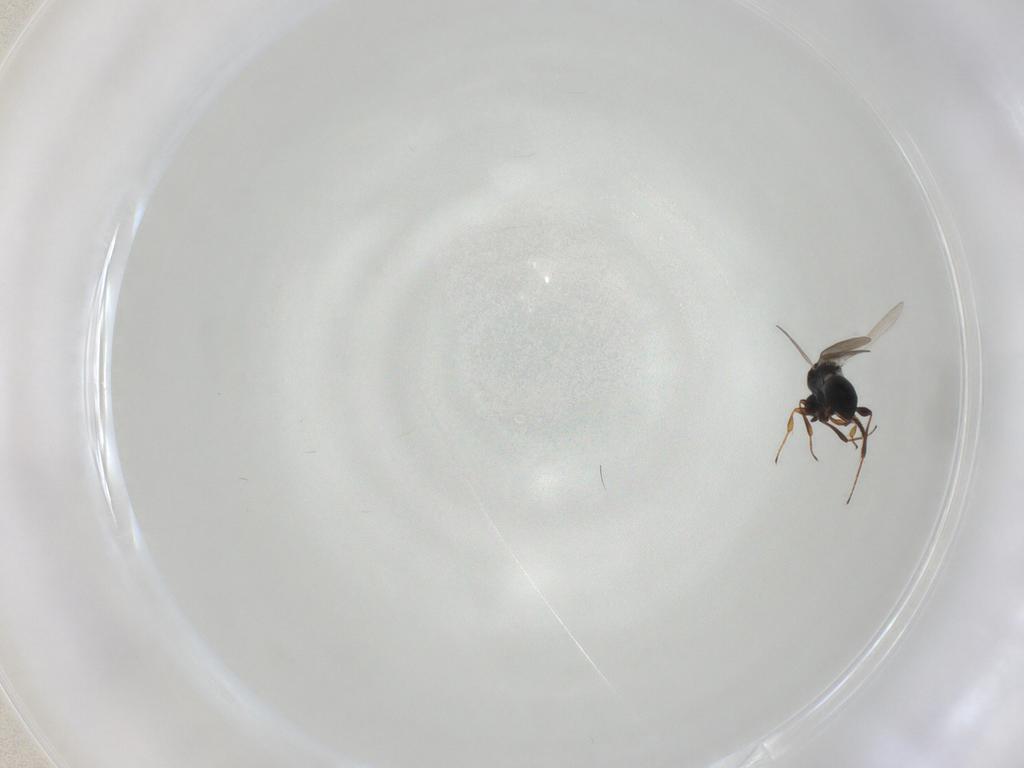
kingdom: Animalia
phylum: Arthropoda
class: Insecta
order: Hymenoptera
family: Platygastridae
